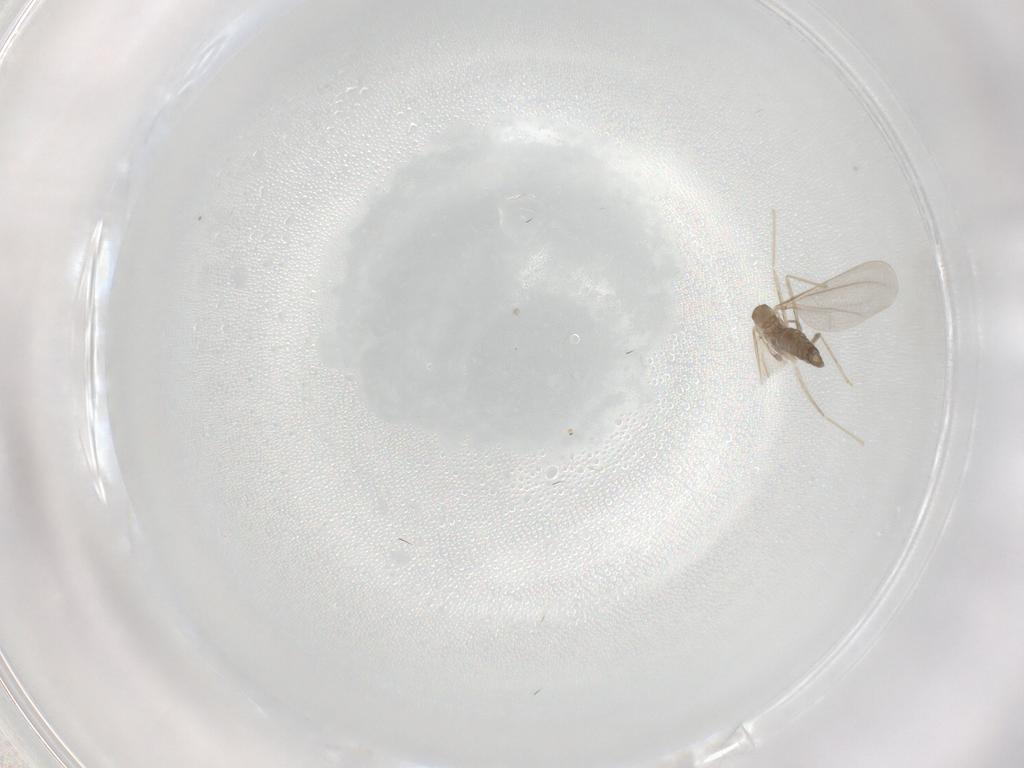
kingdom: Animalia
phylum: Arthropoda
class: Insecta
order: Diptera
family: Cecidomyiidae
